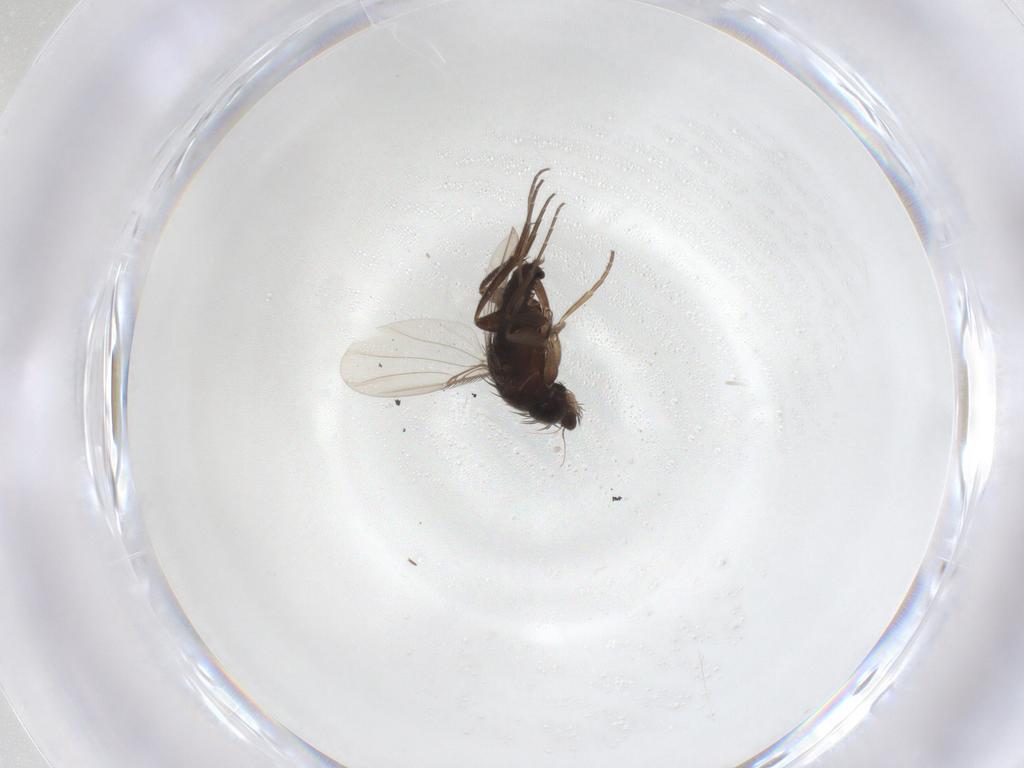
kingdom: Animalia
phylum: Arthropoda
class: Insecta
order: Diptera
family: Phoridae
